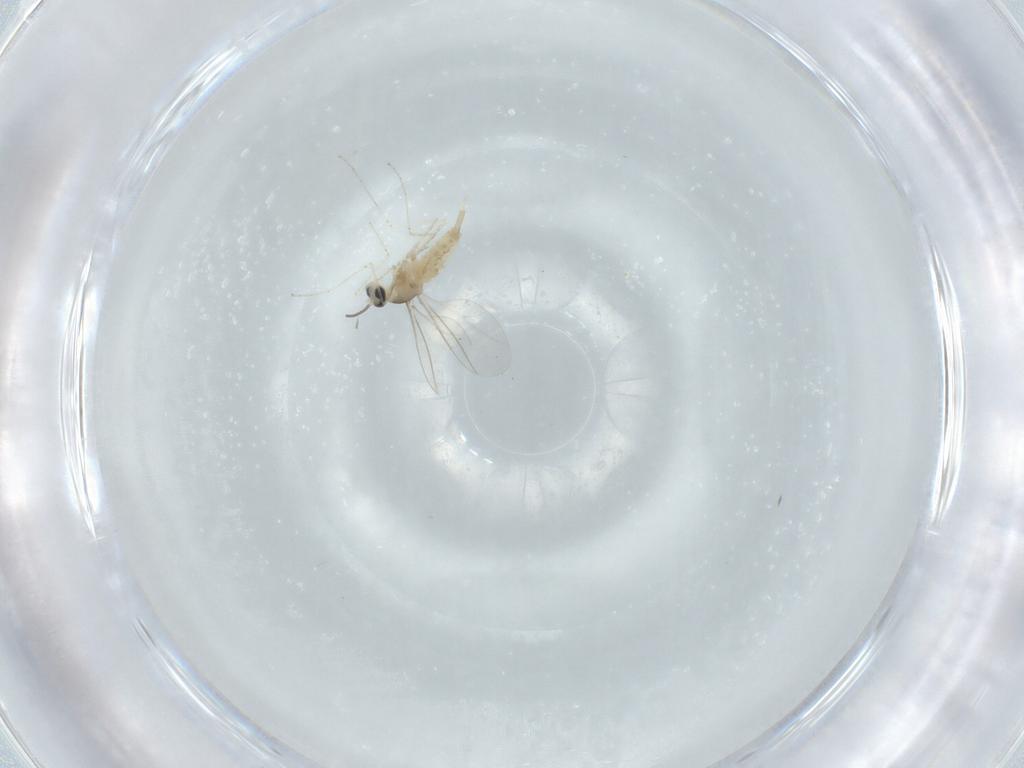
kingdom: Animalia
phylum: Arthropoda
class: Insecta
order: Diptera
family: Cecidomyiidae
